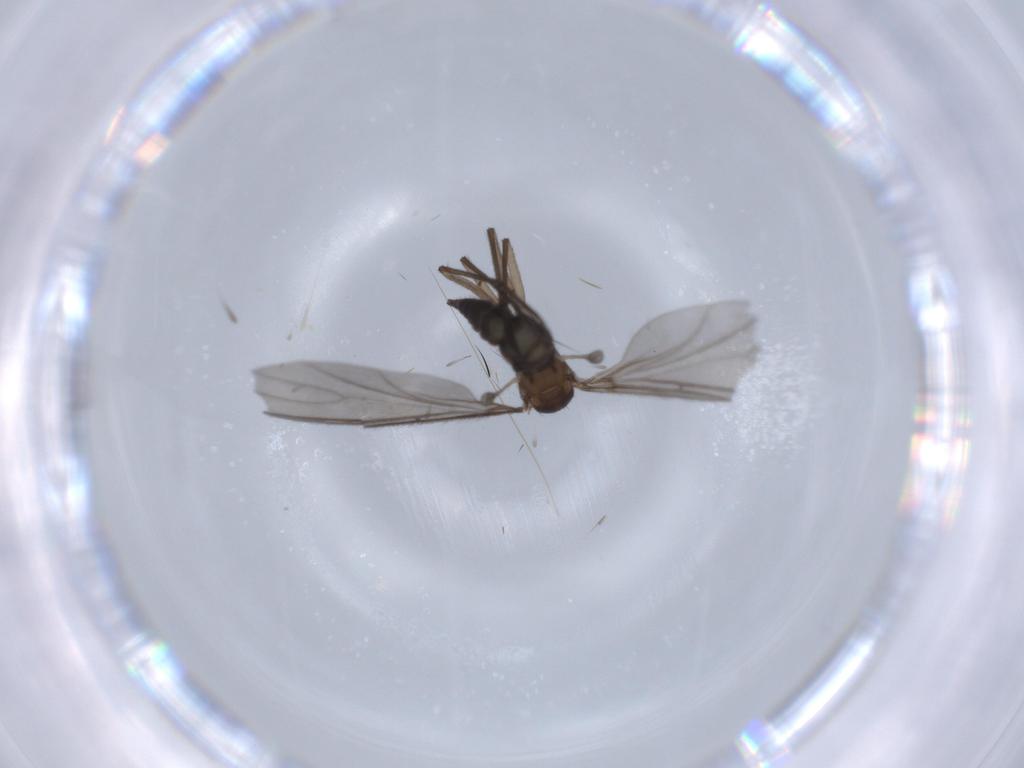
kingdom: Animalia
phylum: Arthropoda
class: Insecta
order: Diptera
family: Sciaridae
